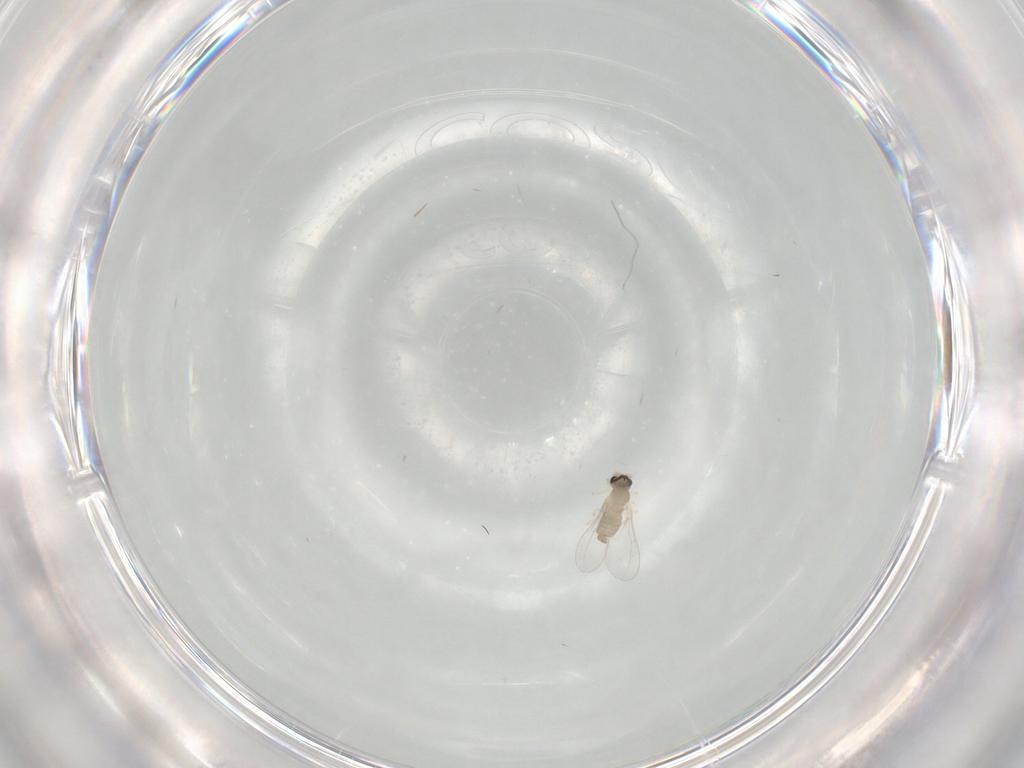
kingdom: Animalia
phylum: Arthropoda
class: Insecta
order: Diptera
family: Cecidomyiidae
